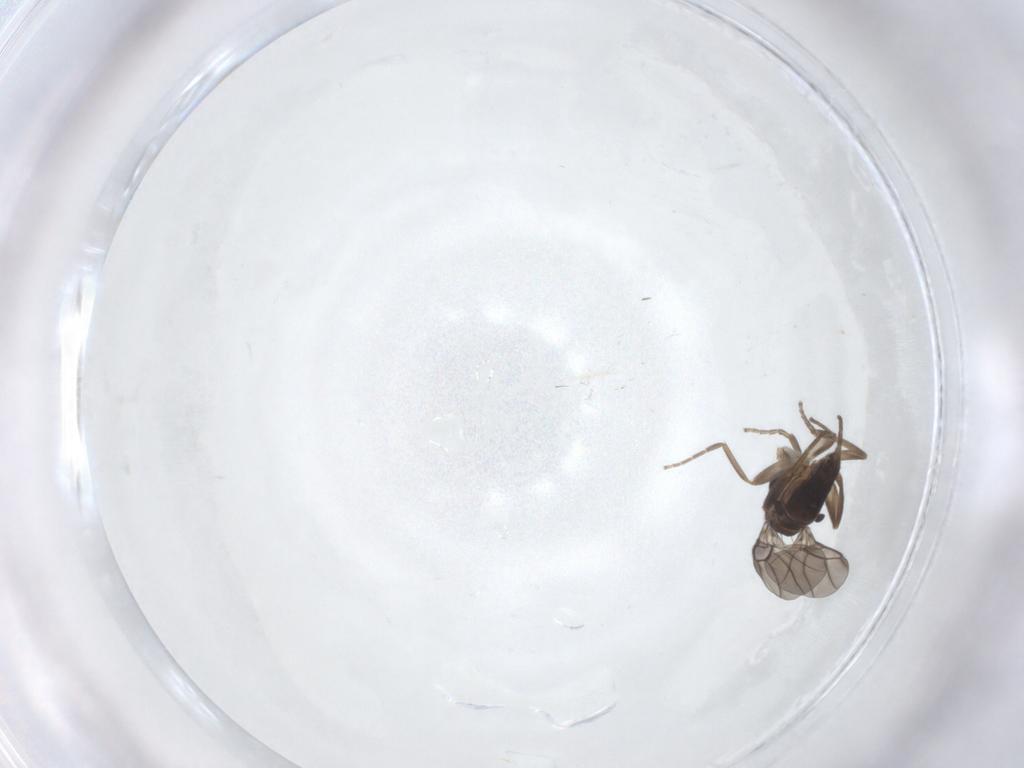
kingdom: Animalia
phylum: Arthropoda
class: Insecta
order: Diptera
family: Phoridae
